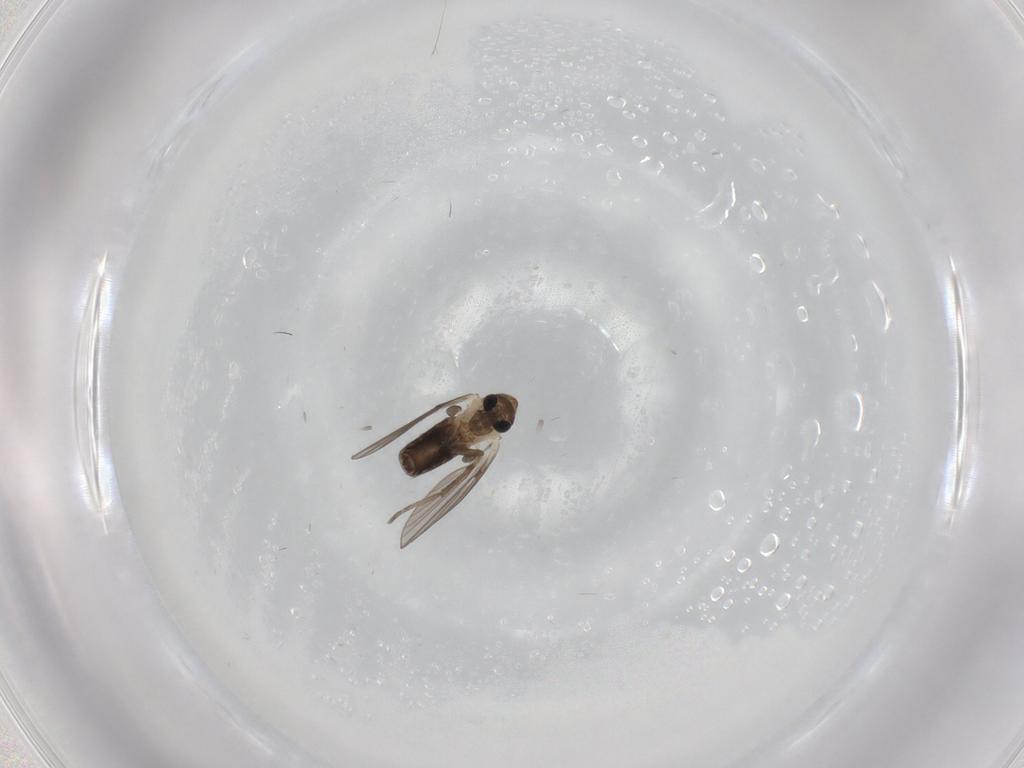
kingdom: Animalia
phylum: Arthropoda
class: Insecta
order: Diptera
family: Psychodidae
